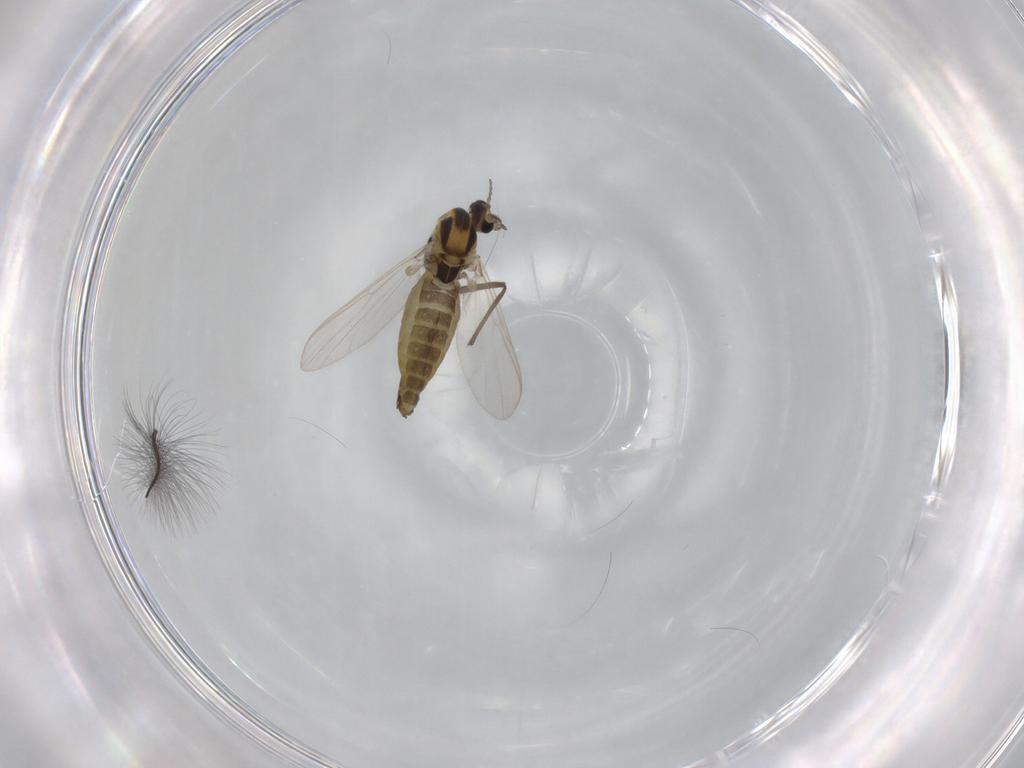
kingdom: Animalia
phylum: Arthropoda
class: Insecta
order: Diptera
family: Chironomidae
